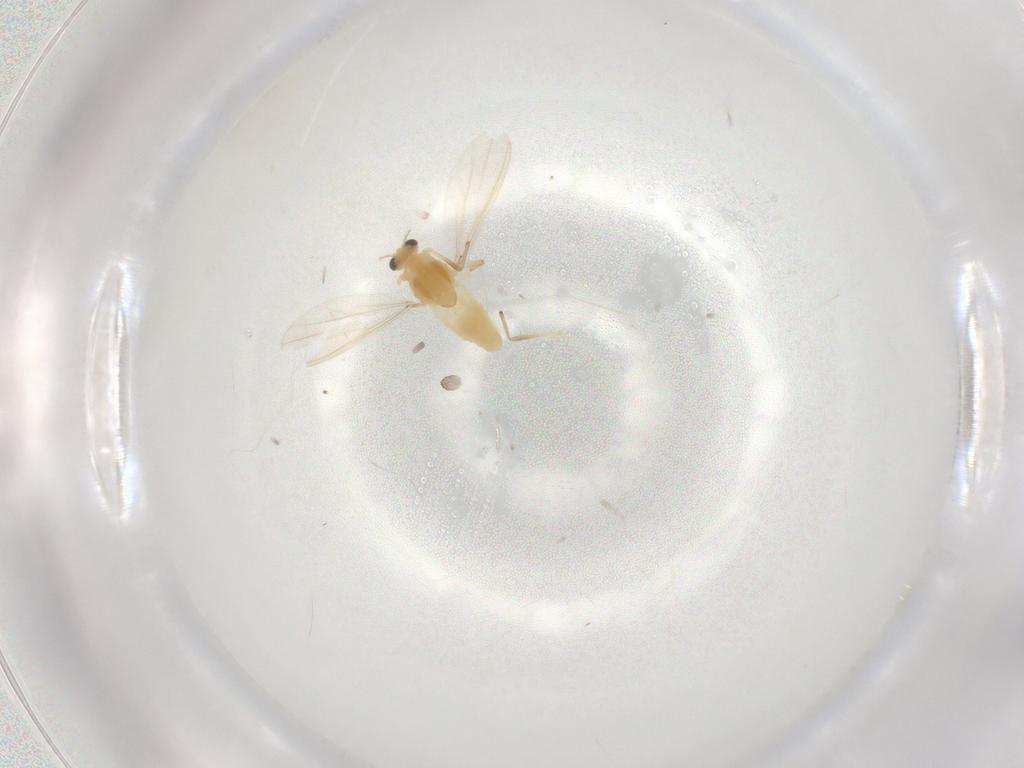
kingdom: Animalia
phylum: Arthropoda
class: Insecta
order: Diptera
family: Chironomidae
